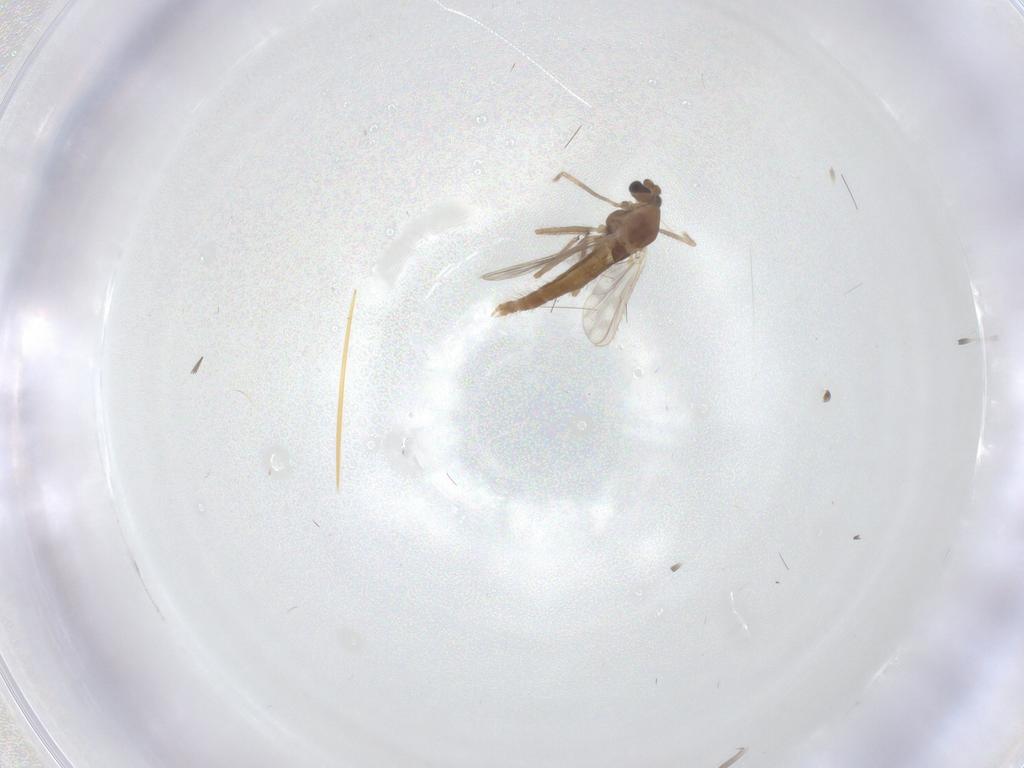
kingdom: Animalia
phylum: Arthropoda
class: Insecta
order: Diptera
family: Chironomidae
